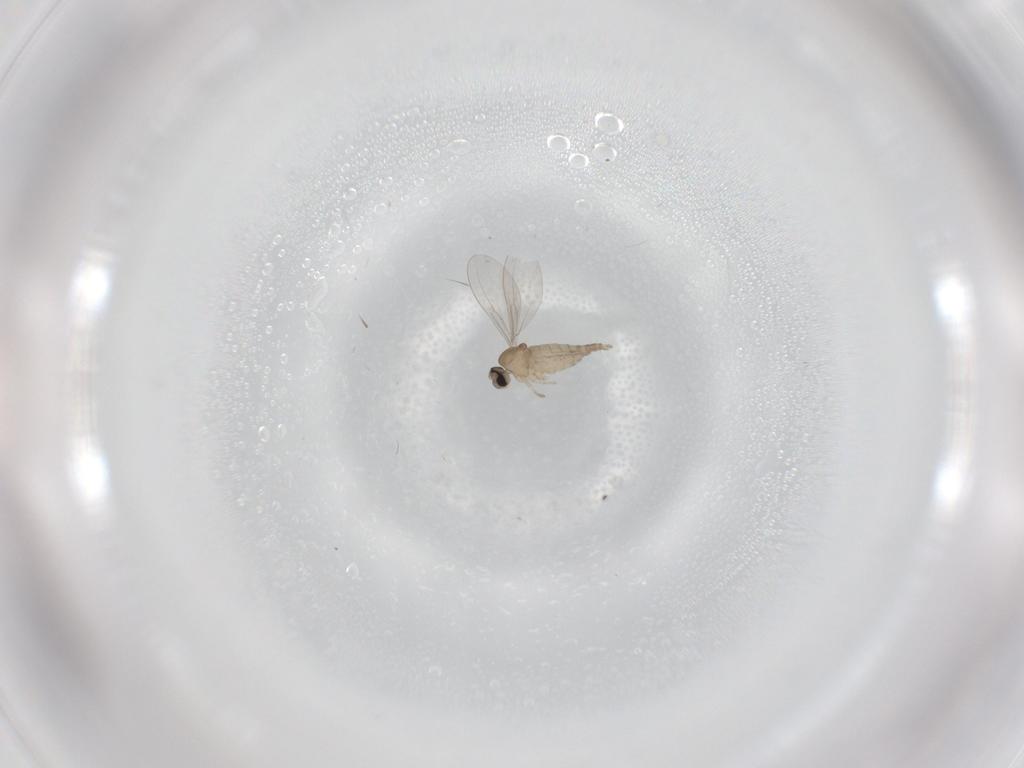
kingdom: Animalia
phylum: Arthropoda
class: Insecta
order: Diptera
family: Cecidomyiidae
